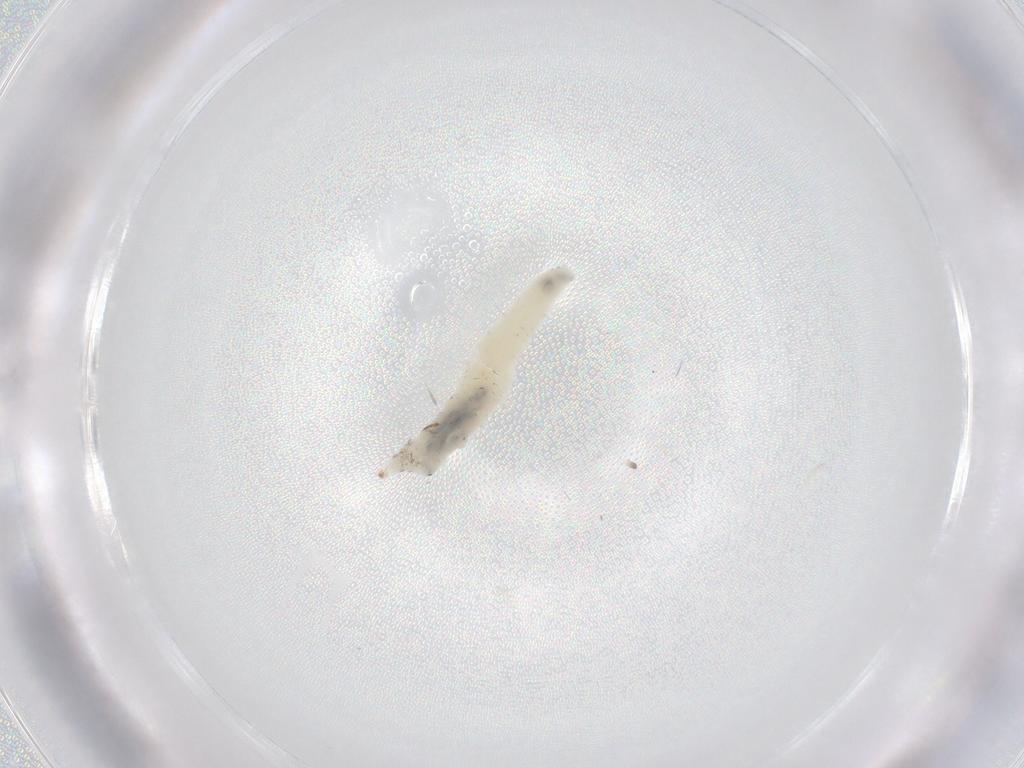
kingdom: Animalia
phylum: Arthropoda
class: Insecta
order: Diptera
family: Drosophilidae
